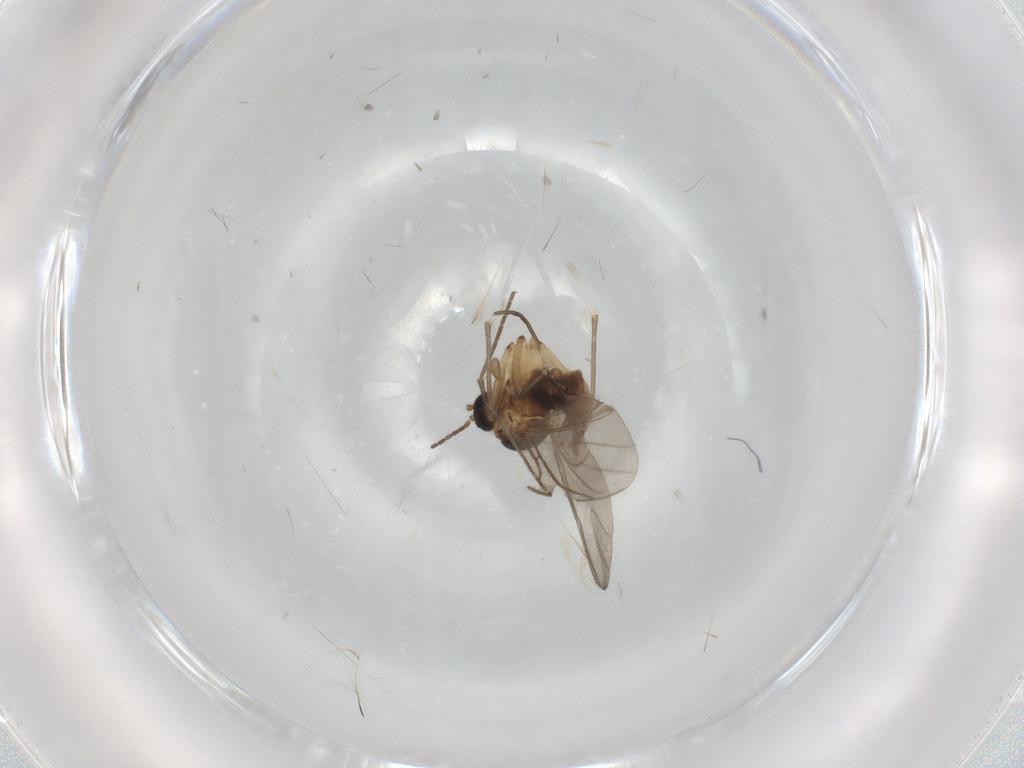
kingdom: Animalia
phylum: Arthropoda
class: Insecta
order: Diptera
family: Sciaridae
